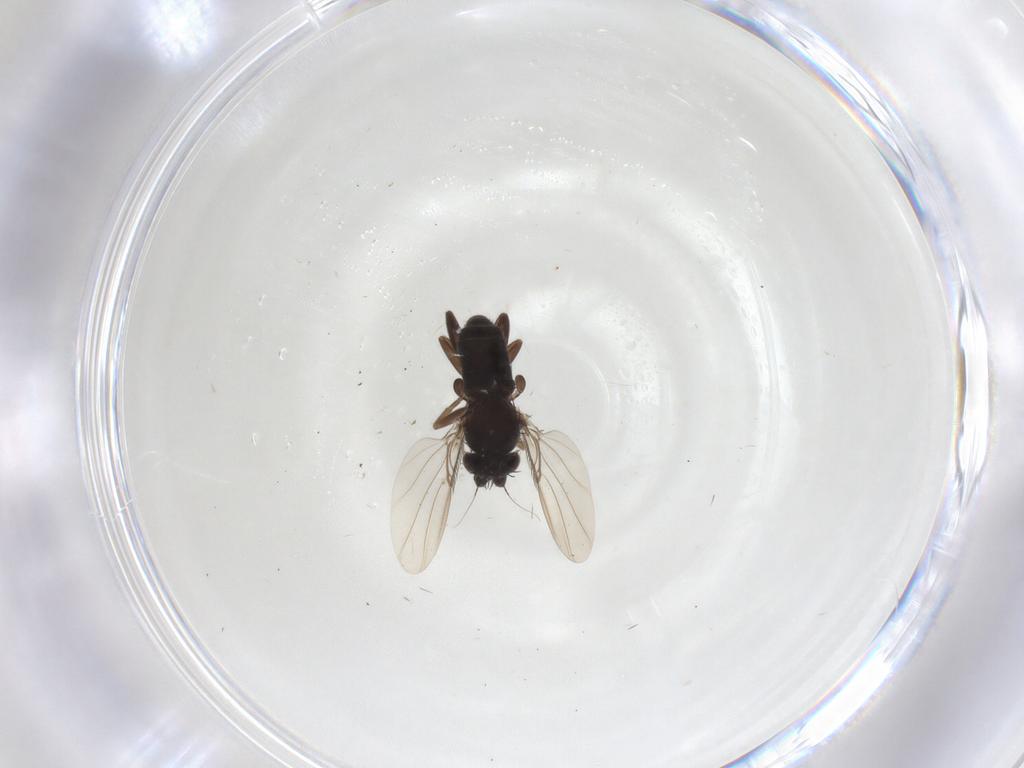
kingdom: Animalia
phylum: Arthropoda
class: Insecta
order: Diptera
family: Phoridae
